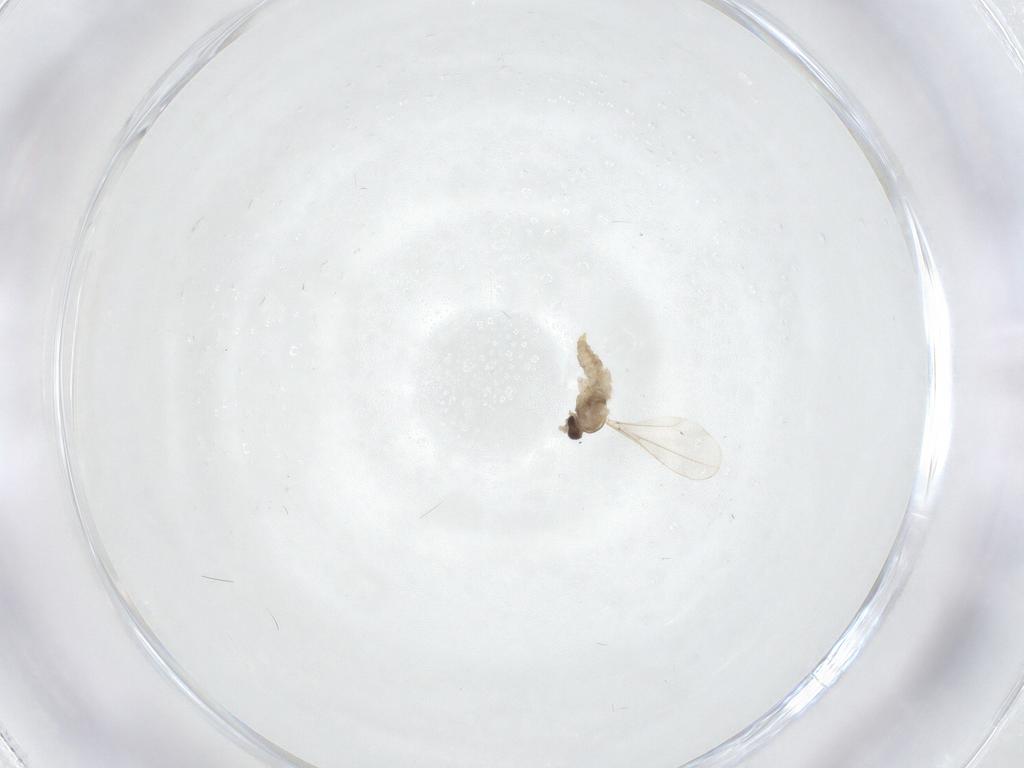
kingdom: Animalia
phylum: Arthropoda
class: Insecta
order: Diptera
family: Cecidomyiidae
